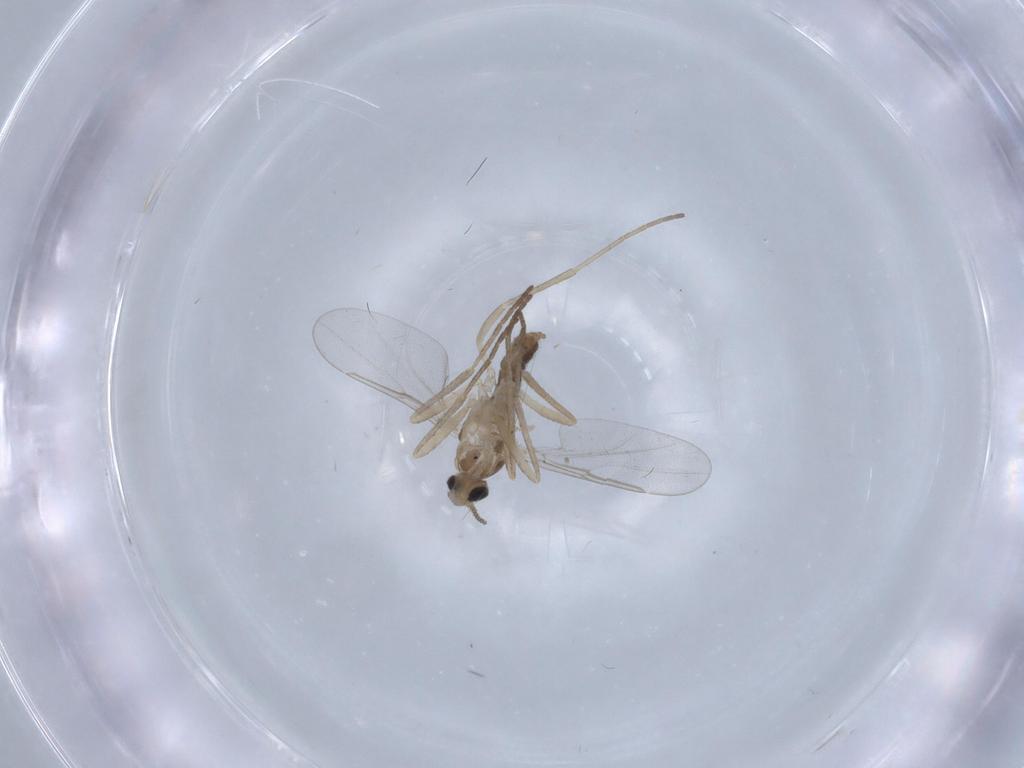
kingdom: Animalia
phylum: Arthropoda
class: Insecta
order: Diptera
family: Cecidomyiidae
